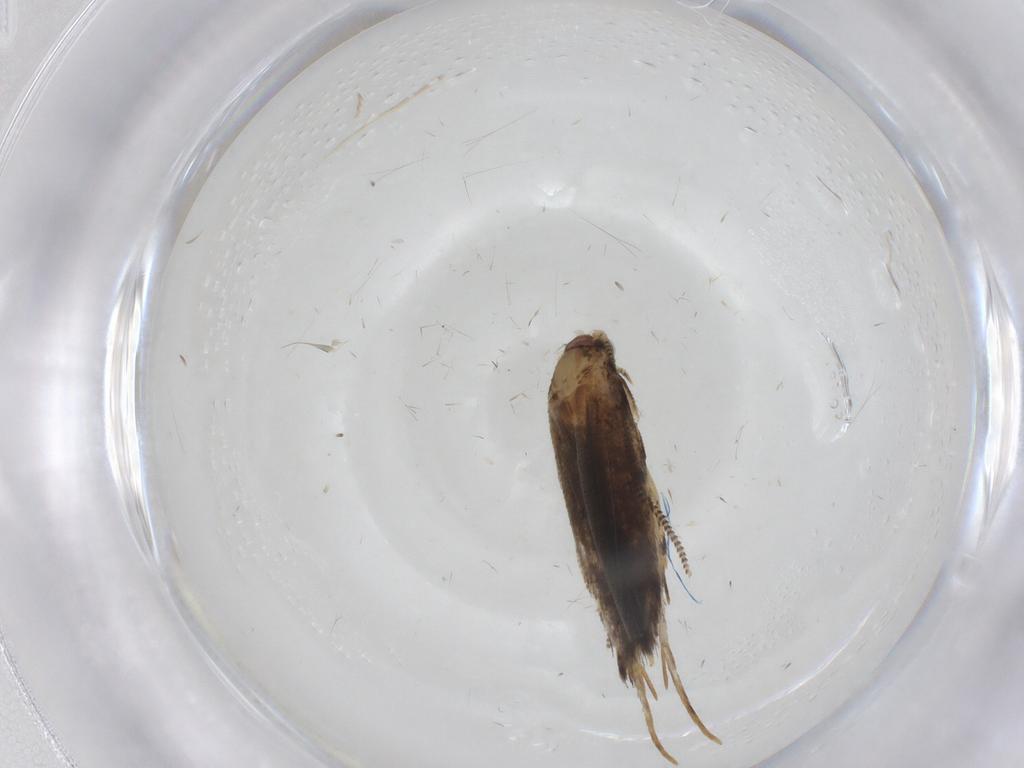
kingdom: Animalia
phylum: Arthropoda
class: Insecta
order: Lepidoptera
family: Tineidae
